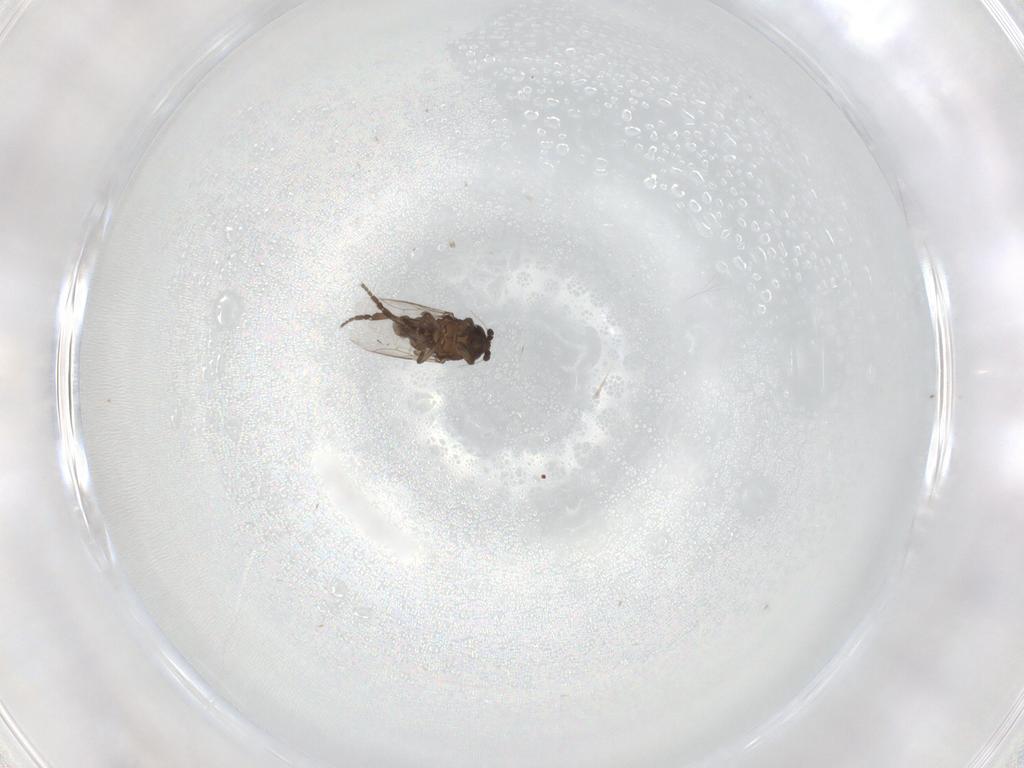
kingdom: Animalia
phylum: Arthropoda
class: Insecta
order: Diptera
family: Sphaeroceridae
